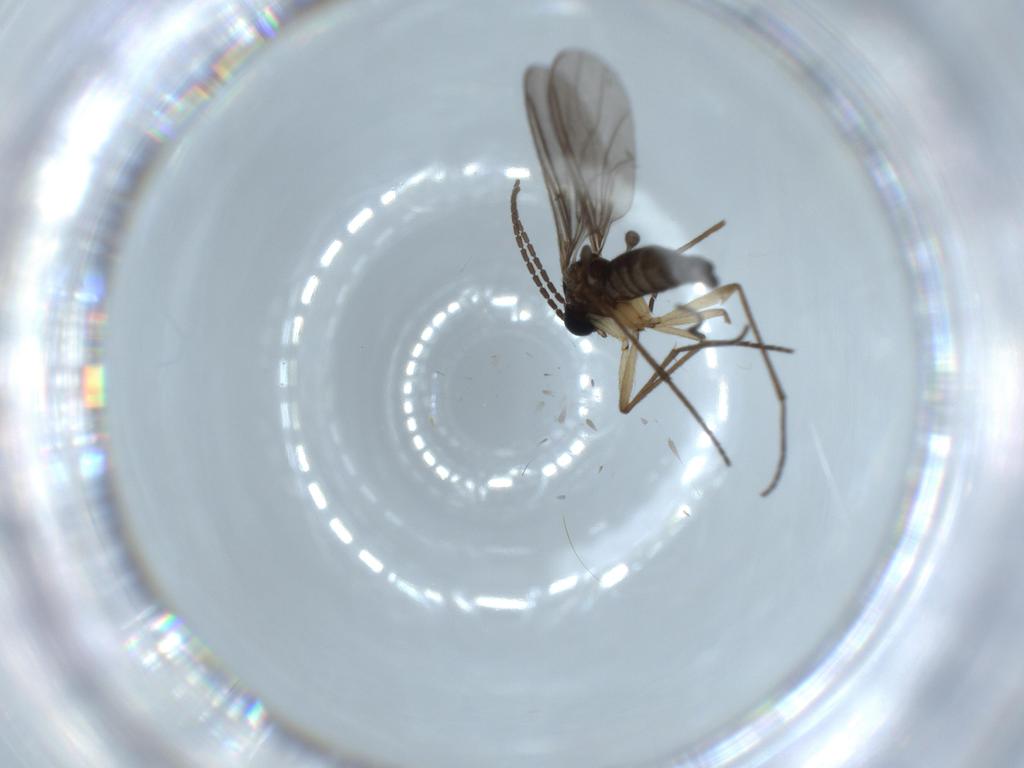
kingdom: Animalia
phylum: Arthropoda
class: Insecta
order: Diptera
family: Sciaridae
